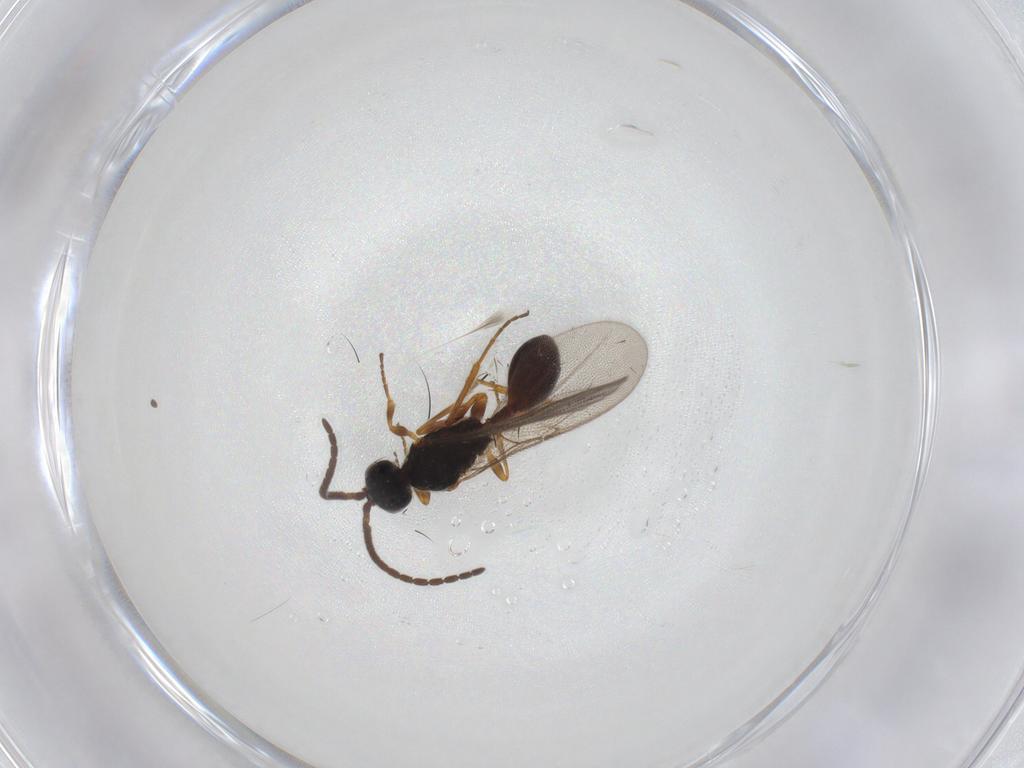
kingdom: Animalia
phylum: Arthropoda
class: Insecta
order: Hymenoptera
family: Diapriidae
